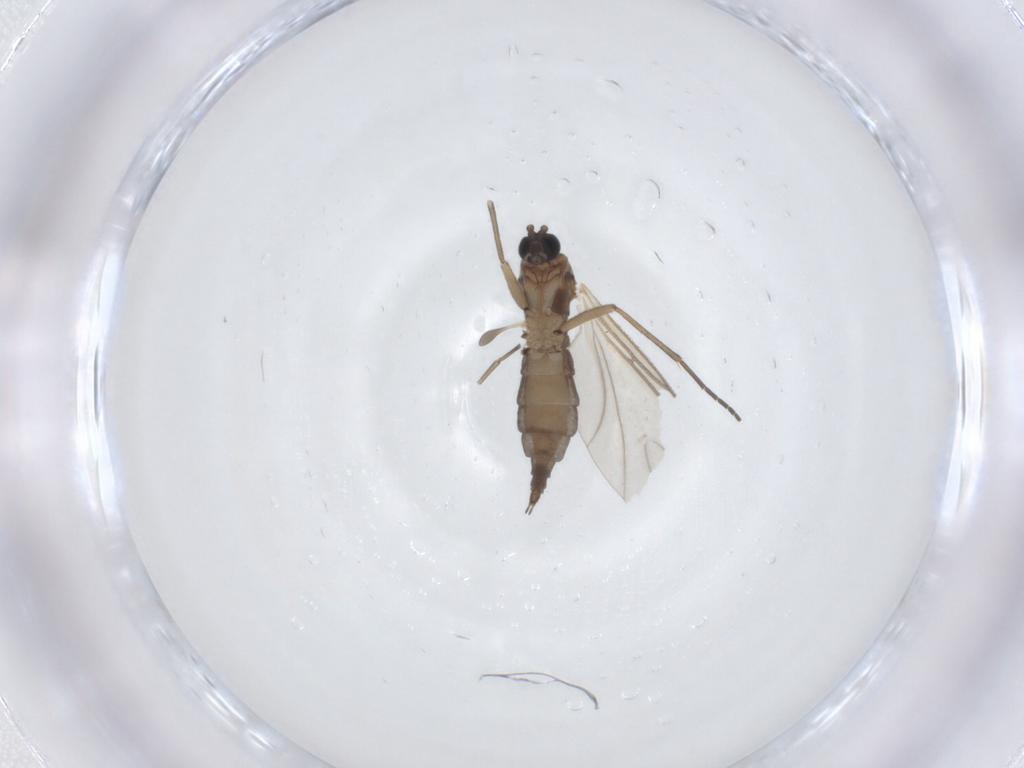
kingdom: Animalia
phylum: Arthropoda
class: Insecta
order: Diptera
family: Sciaridae
